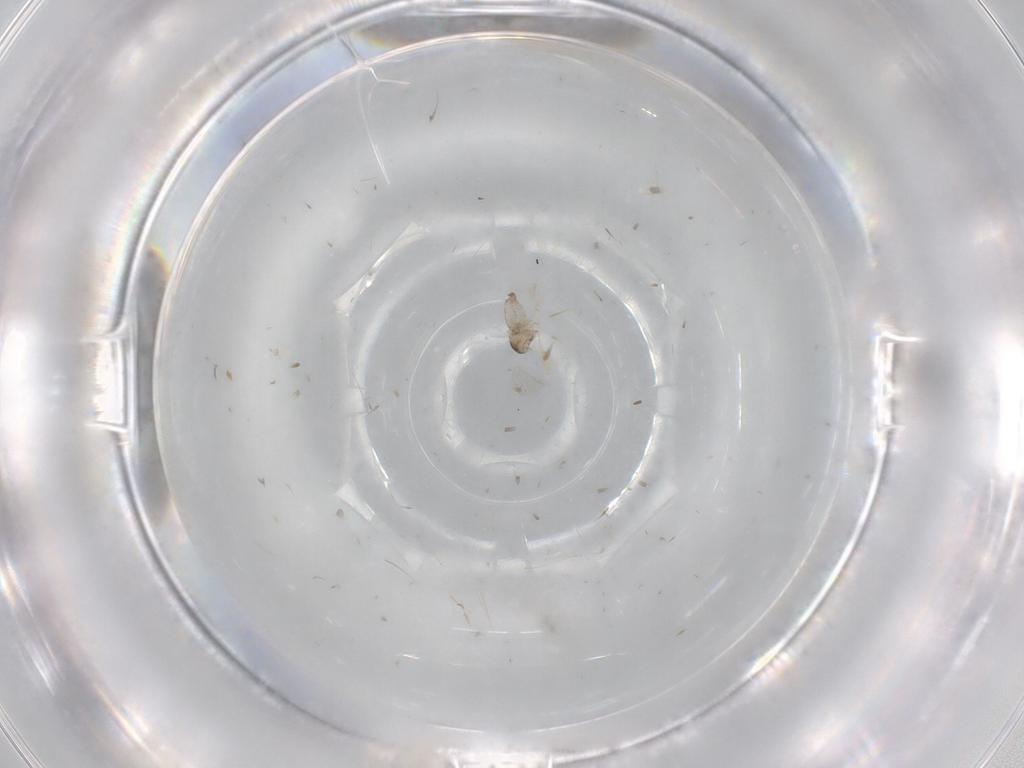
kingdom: Animalia
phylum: Arthropoda
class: Insecta
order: Diptera
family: Cecidomyiidae
